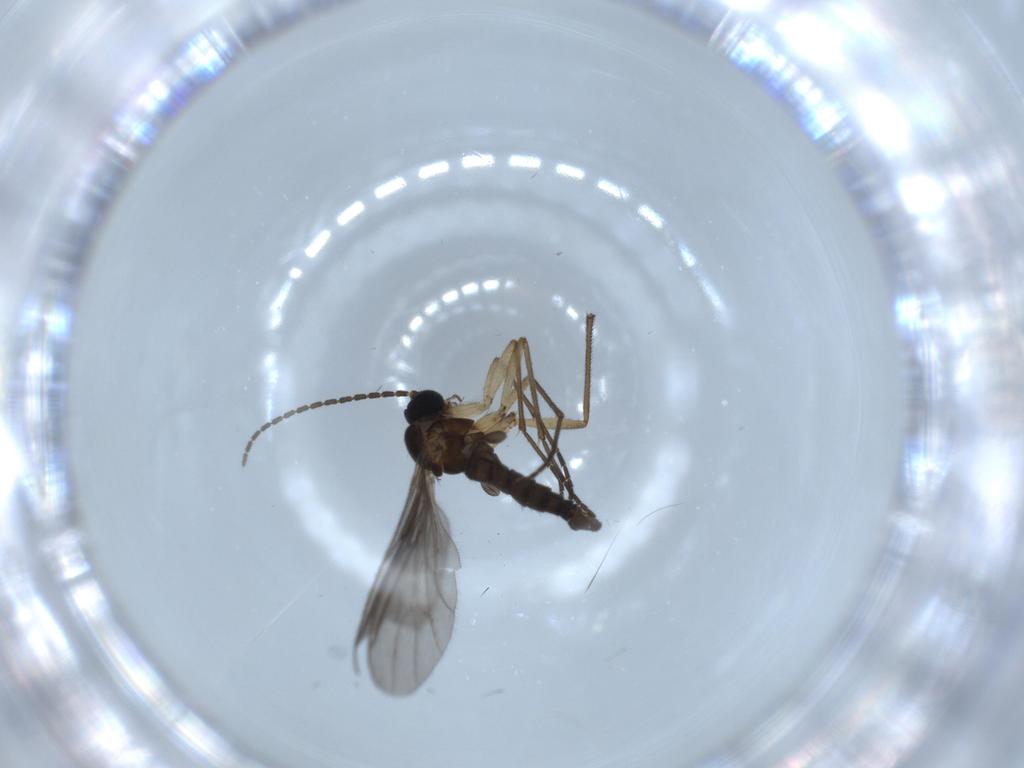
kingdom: Animalia
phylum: Arthropoda
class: Insecta
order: Diptera
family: Sciaridae
